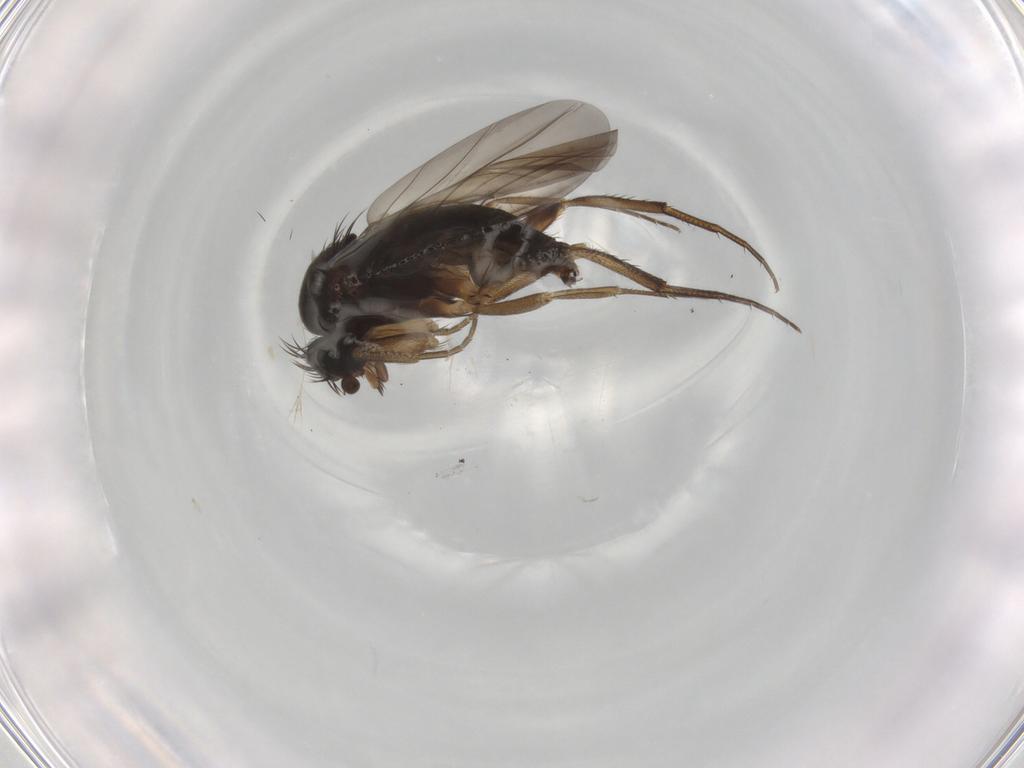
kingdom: Animalia
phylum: Arthropoda
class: Insecta
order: Diptera
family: Phoridae
